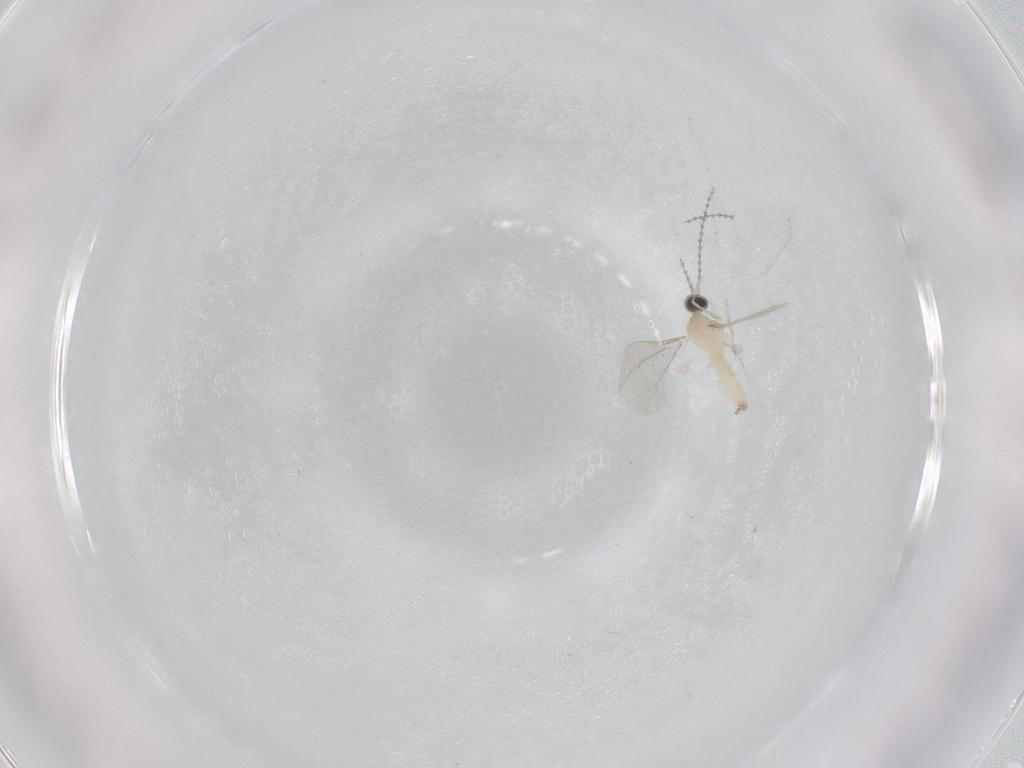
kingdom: Animalia
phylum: Arthropoda
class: Insecta
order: Diptera
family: Cecidomyiidae
